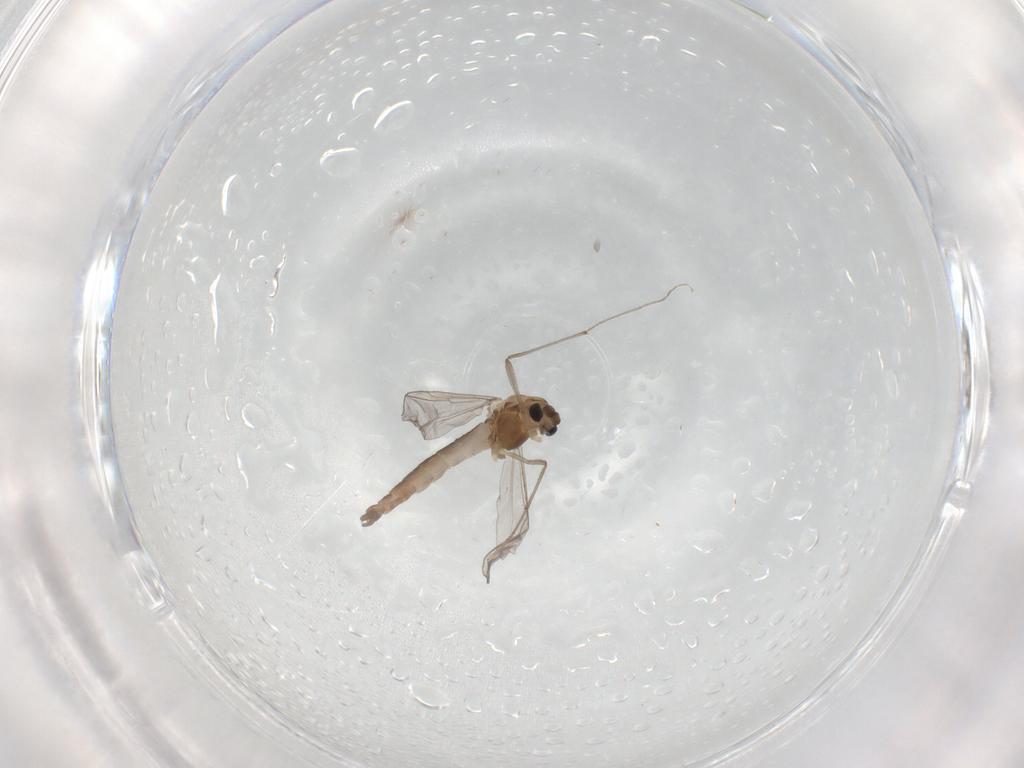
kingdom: Animalia
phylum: Arthropoda
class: Insecta
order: Diptera
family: Chironomidae
